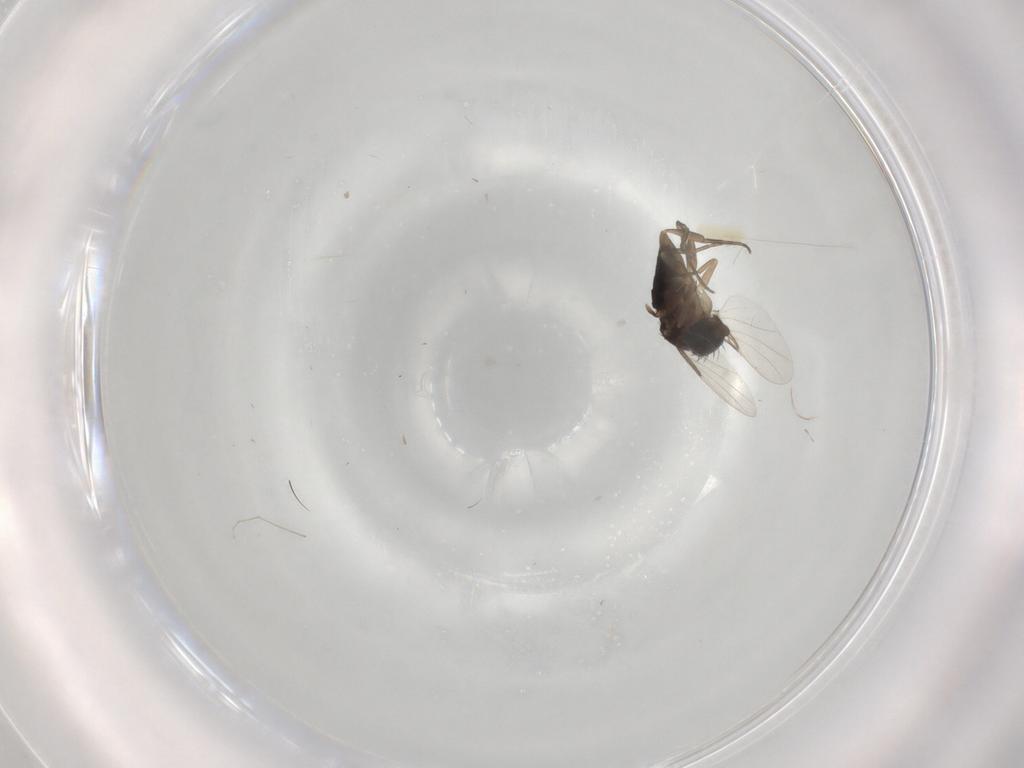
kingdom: Animalia
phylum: Arthropoda
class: Insecta
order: Diptera
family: Phoridae
